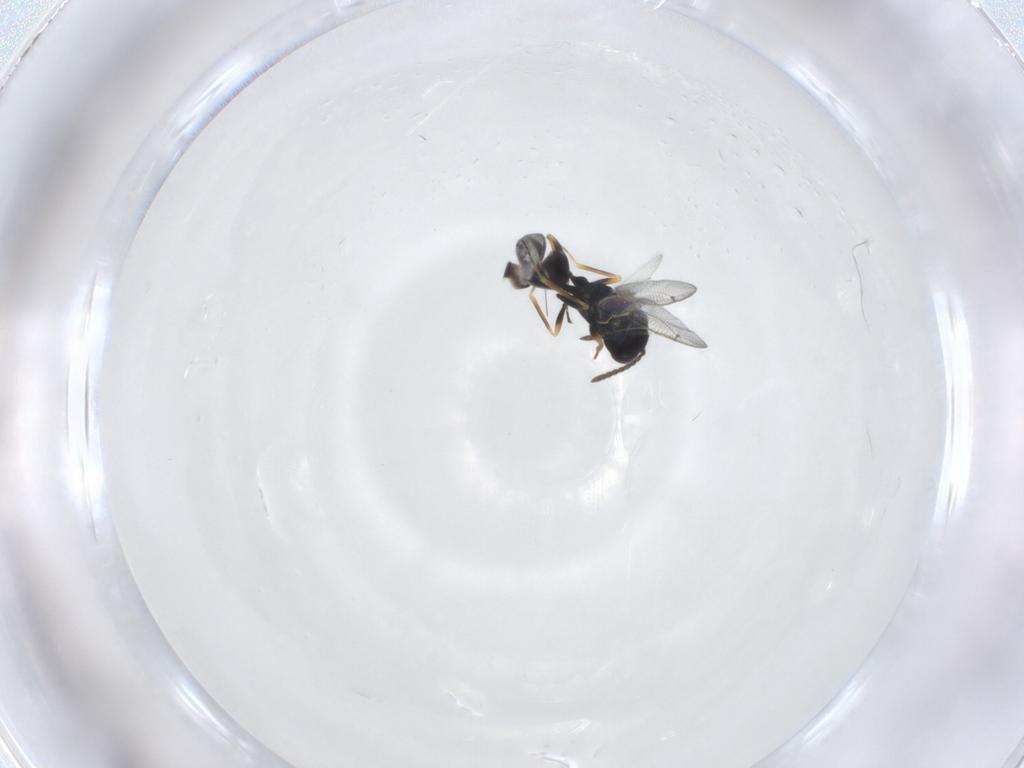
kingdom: Animalia
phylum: Arthropoda
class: Insecta
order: Hymenoptera
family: Pteromalidae
